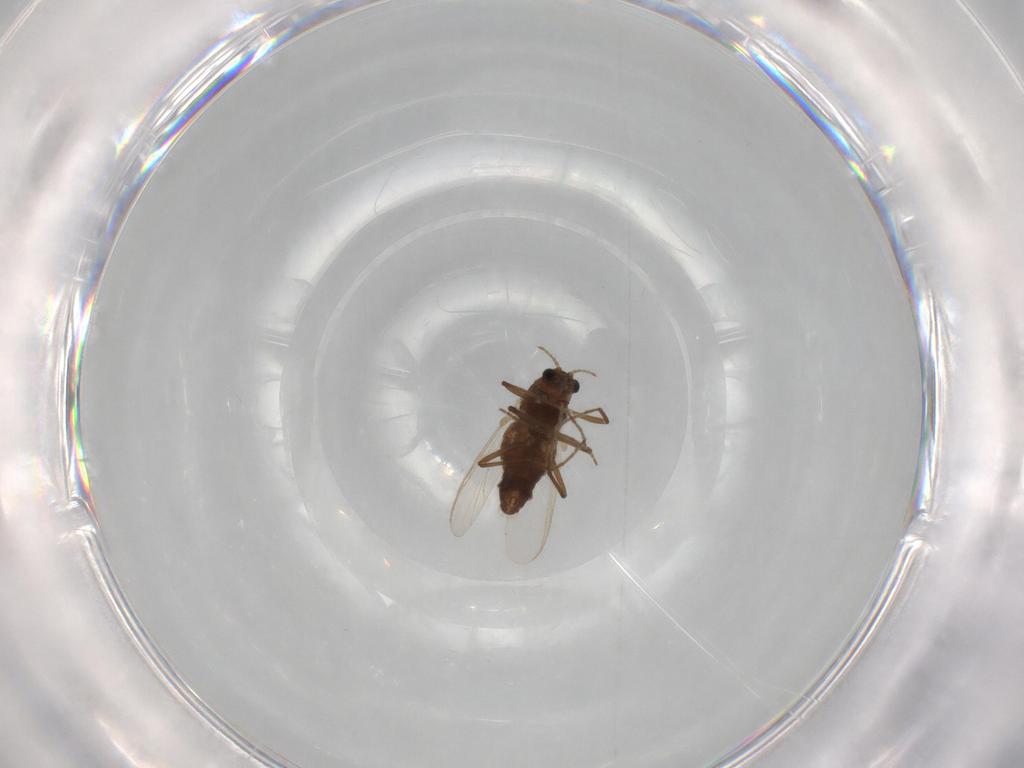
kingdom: Animalia
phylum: Arthropoda
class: Insecta
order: Diptera
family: Chironomidae
